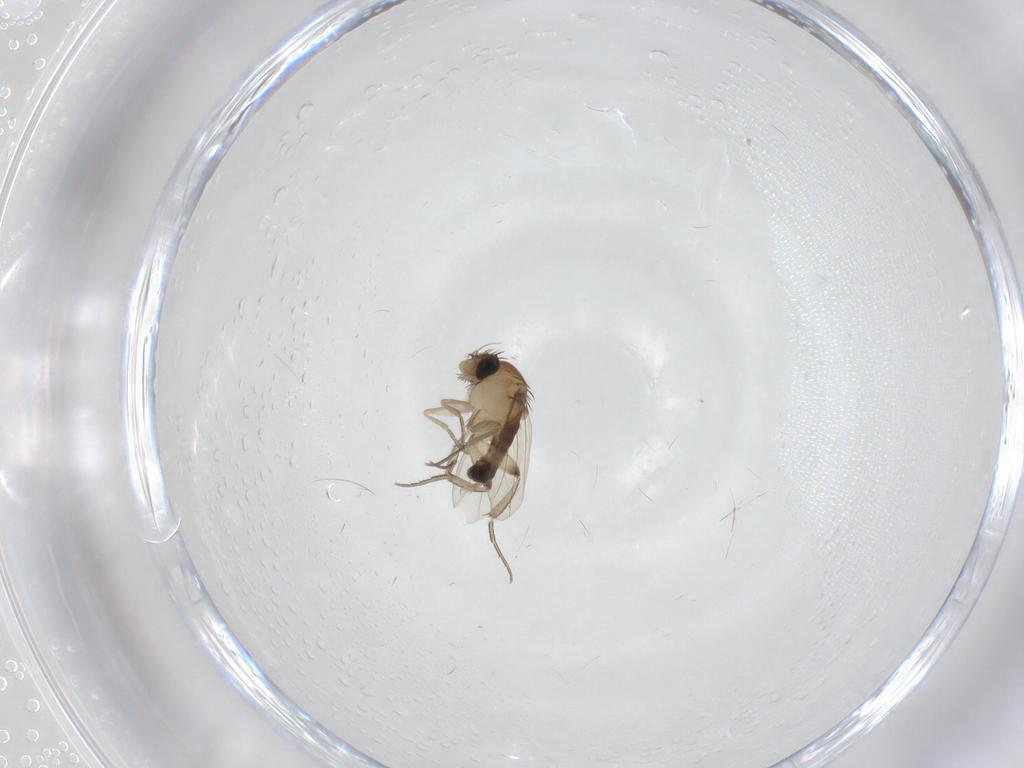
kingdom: Animalia
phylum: Arthropoda
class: Insecta
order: Diptera
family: Phoridae
